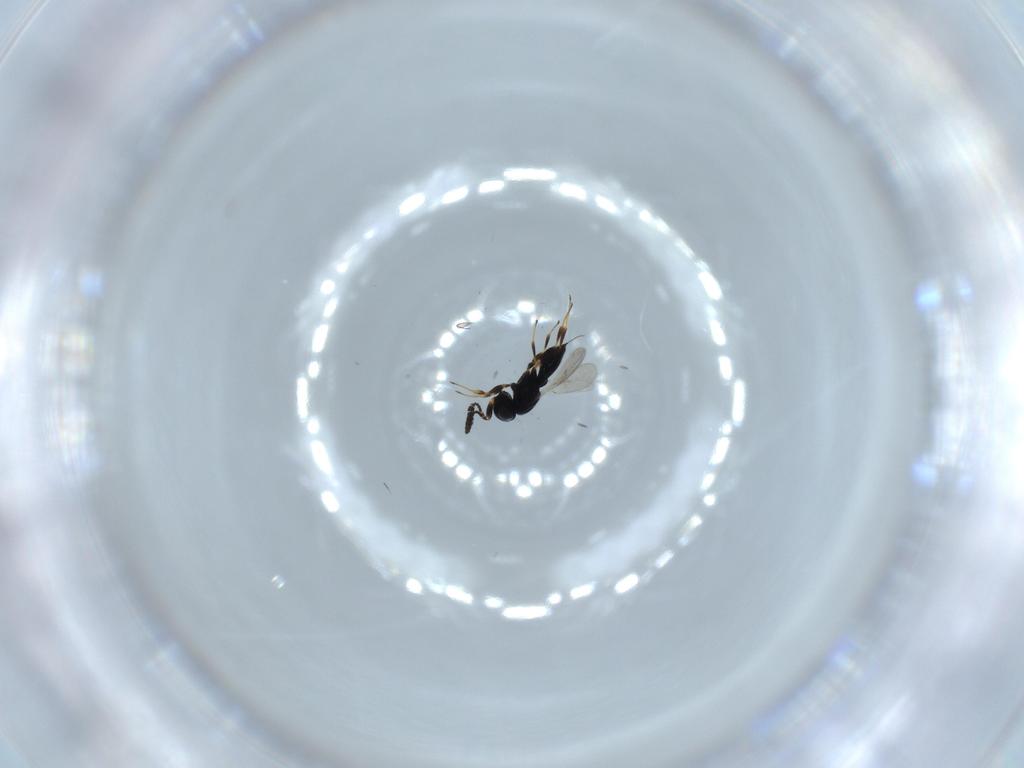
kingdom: Animalia
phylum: Arthropoda
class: Insecta
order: Hymenoptera
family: Scelionidae
